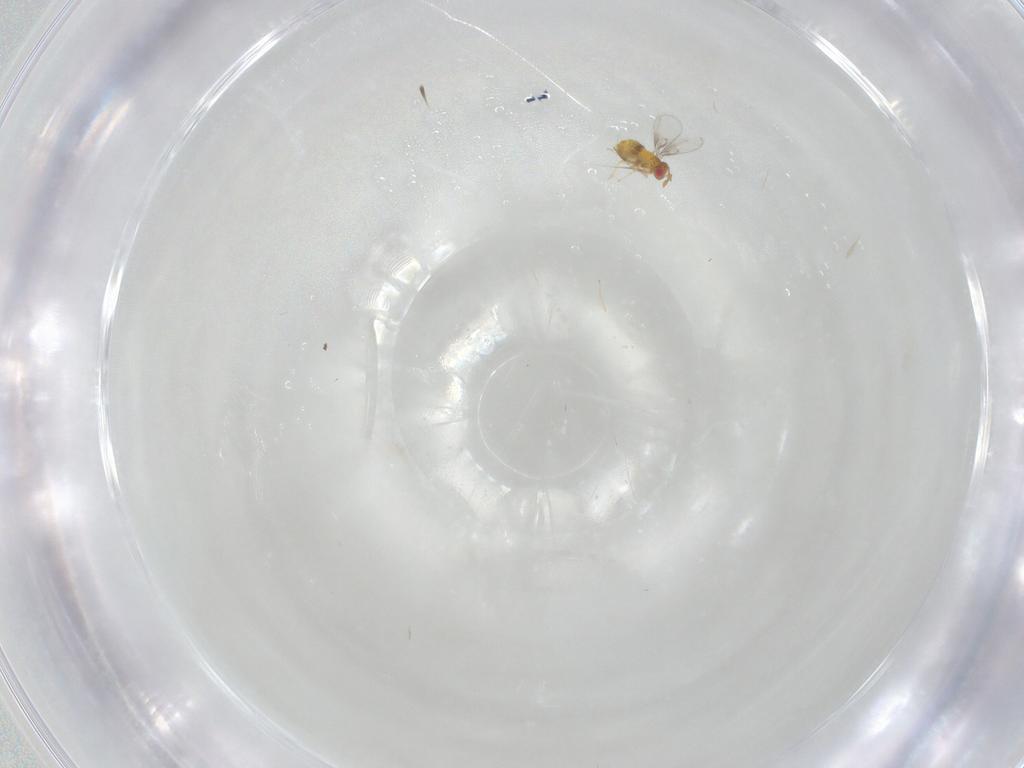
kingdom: Animalia
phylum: Arthropoda
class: Insecta
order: Hymenoptera
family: Trichogrammatidae
